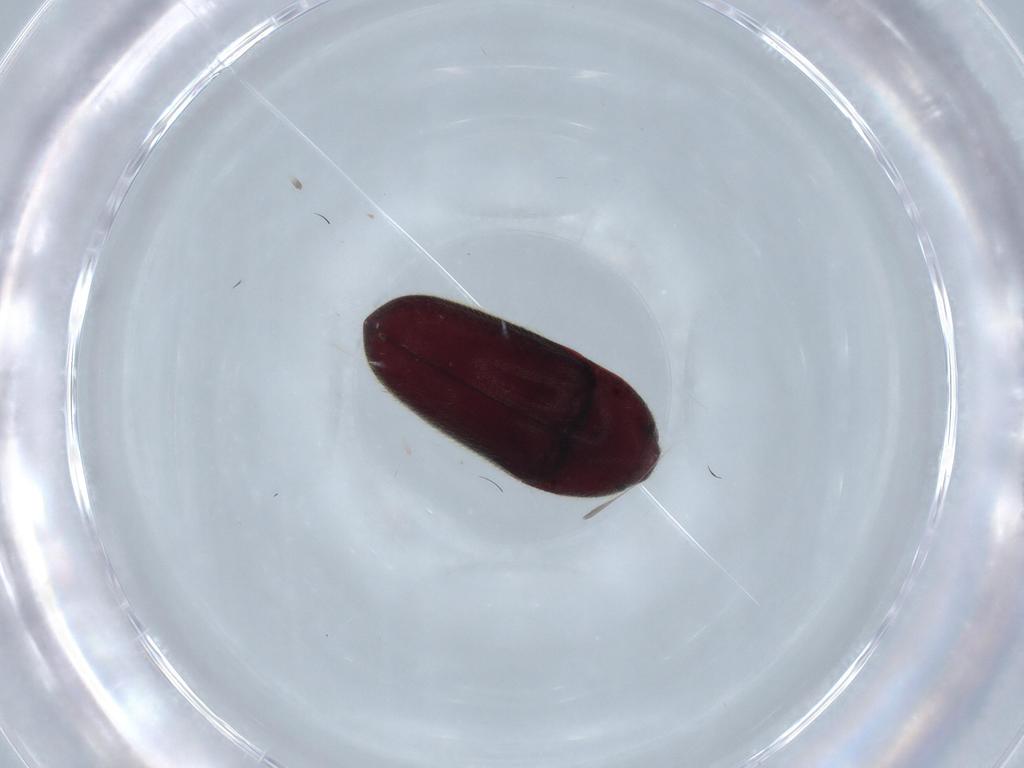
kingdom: Animalia
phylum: Arthropoda
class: Insecta
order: Coleoptera
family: Throscidae
